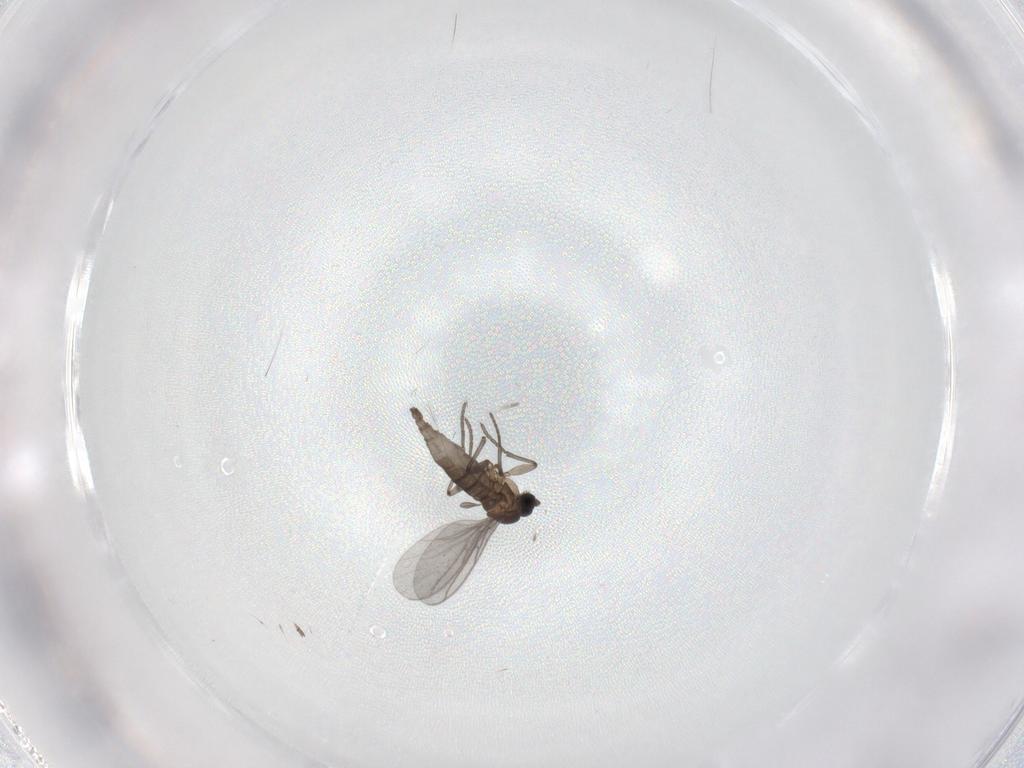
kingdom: Animalia
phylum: Arthropoda
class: Insecta
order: Diptera
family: Sciaridae
